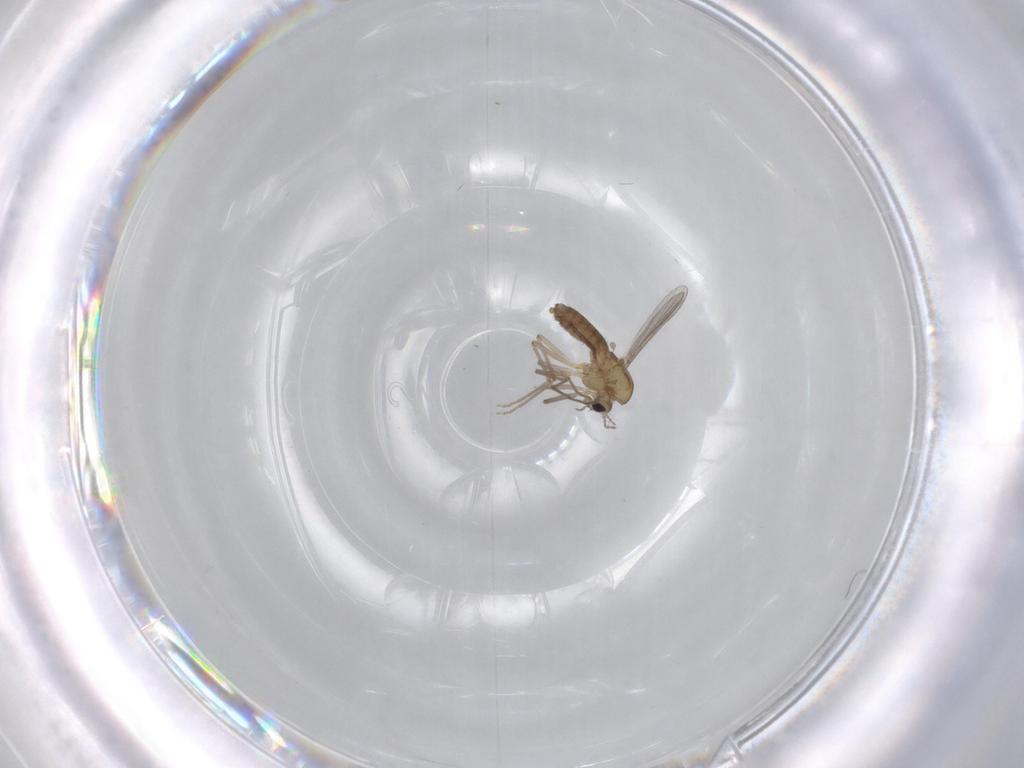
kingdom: Animalia
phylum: Arthropoda
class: Insecta
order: Diptera
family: Chironomidae
